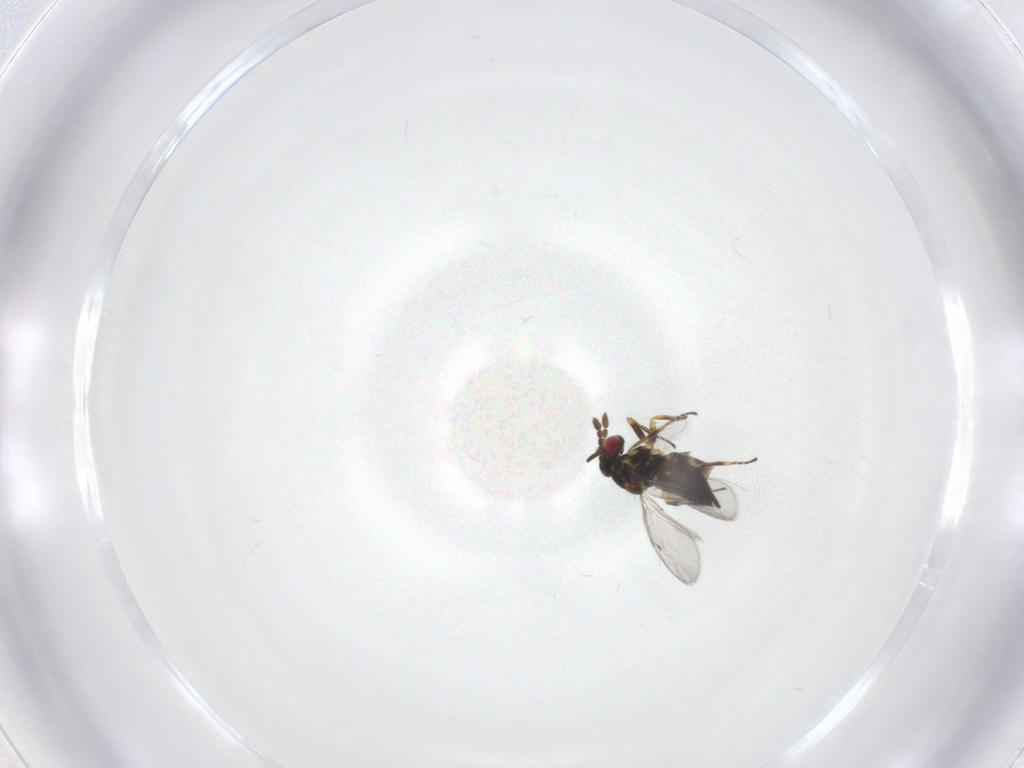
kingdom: Animalia
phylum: Arthropoda
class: Insecta
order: Hymenoptera
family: Eulophidae
